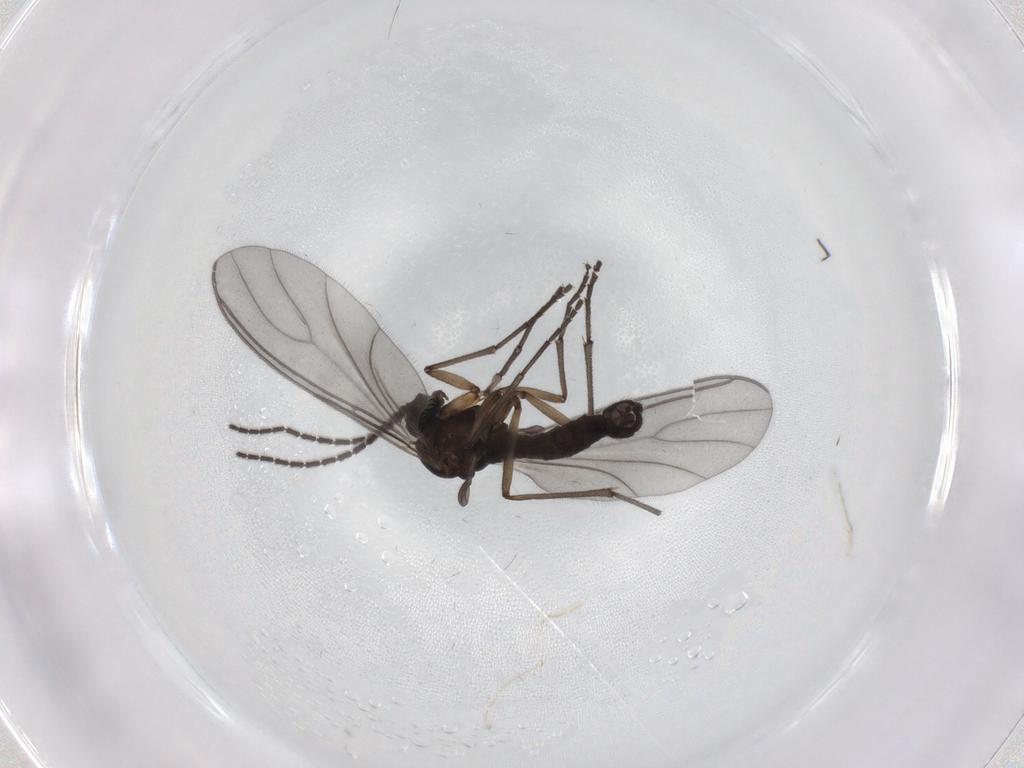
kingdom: Animalia
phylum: Arthropoda
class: Insecta
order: Diptera
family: Sciaridae
